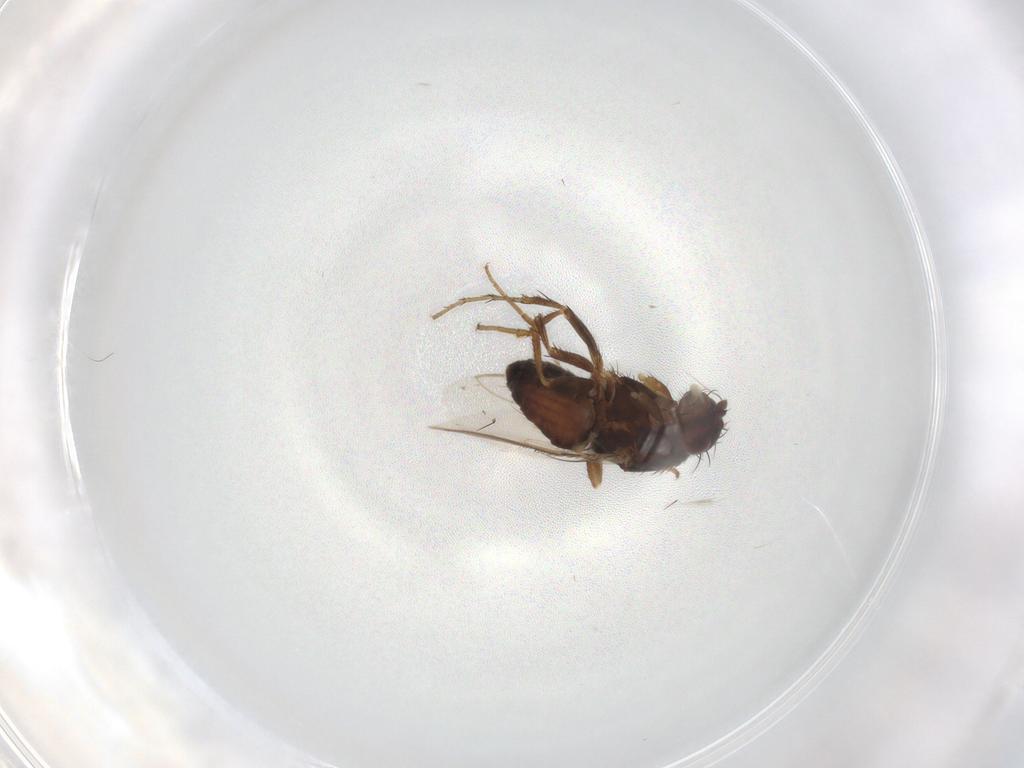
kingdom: Animalia
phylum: Arthropoda
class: Insecta
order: Diptera
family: Sphaeroceridae
